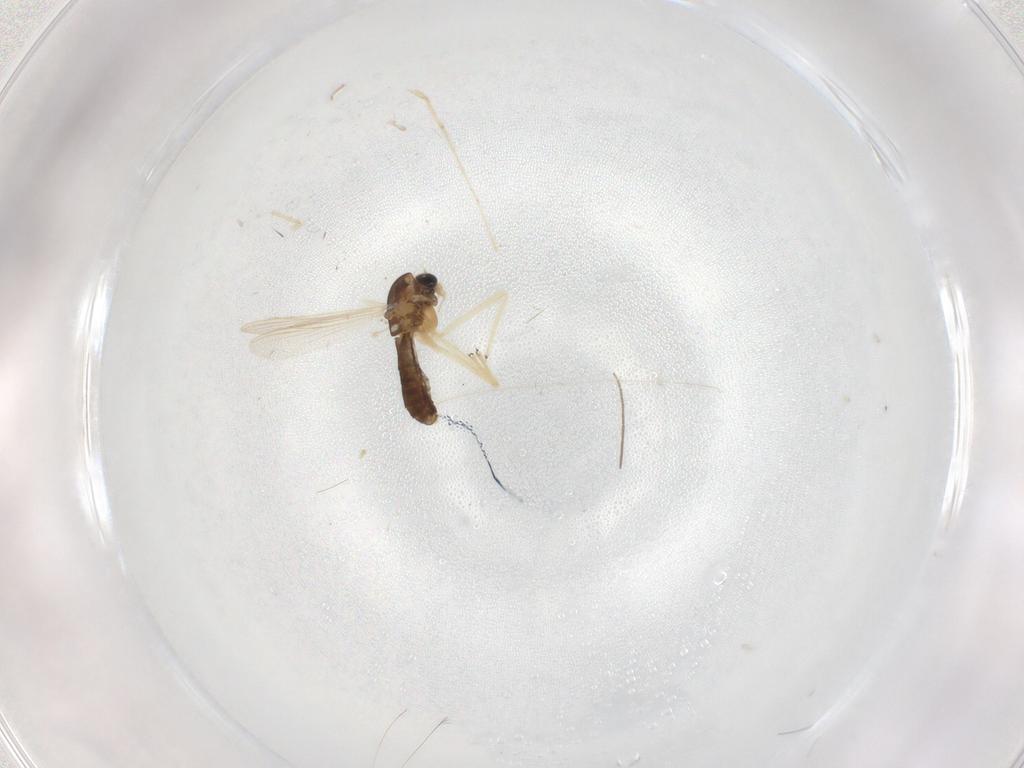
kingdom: Animalia
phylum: Arthropoda
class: Insecta
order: Diptera
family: Chironomidae
